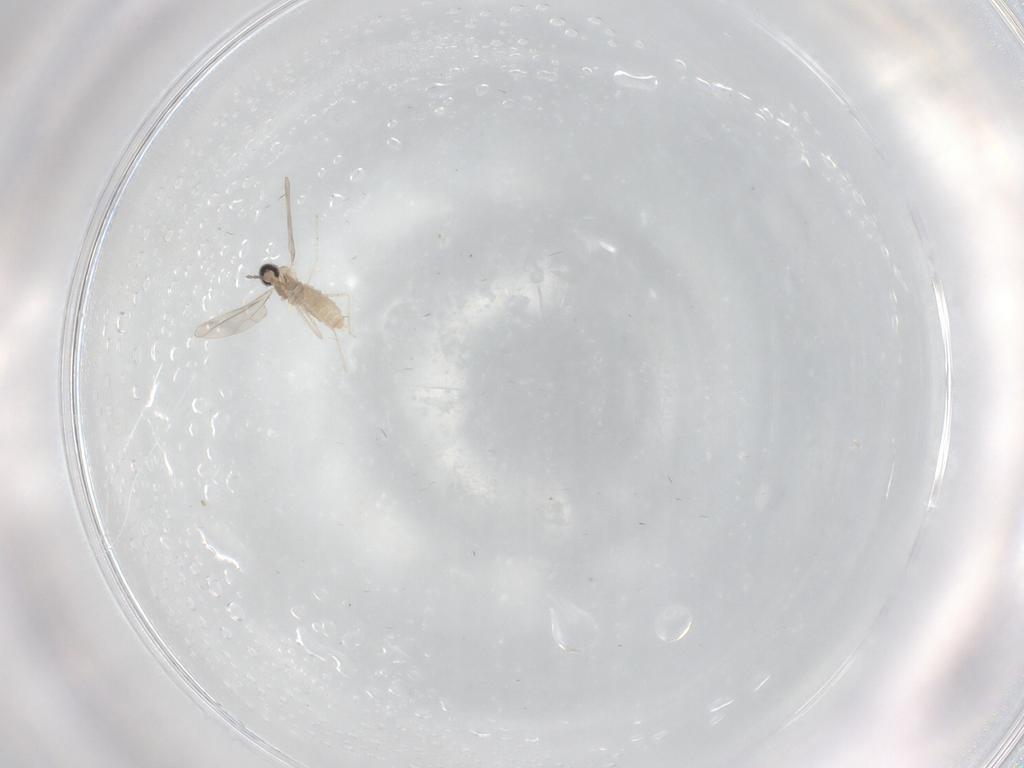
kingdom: Animalia
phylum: Arthropoda
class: Insecta
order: Diptera
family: Cecidomyiidae
